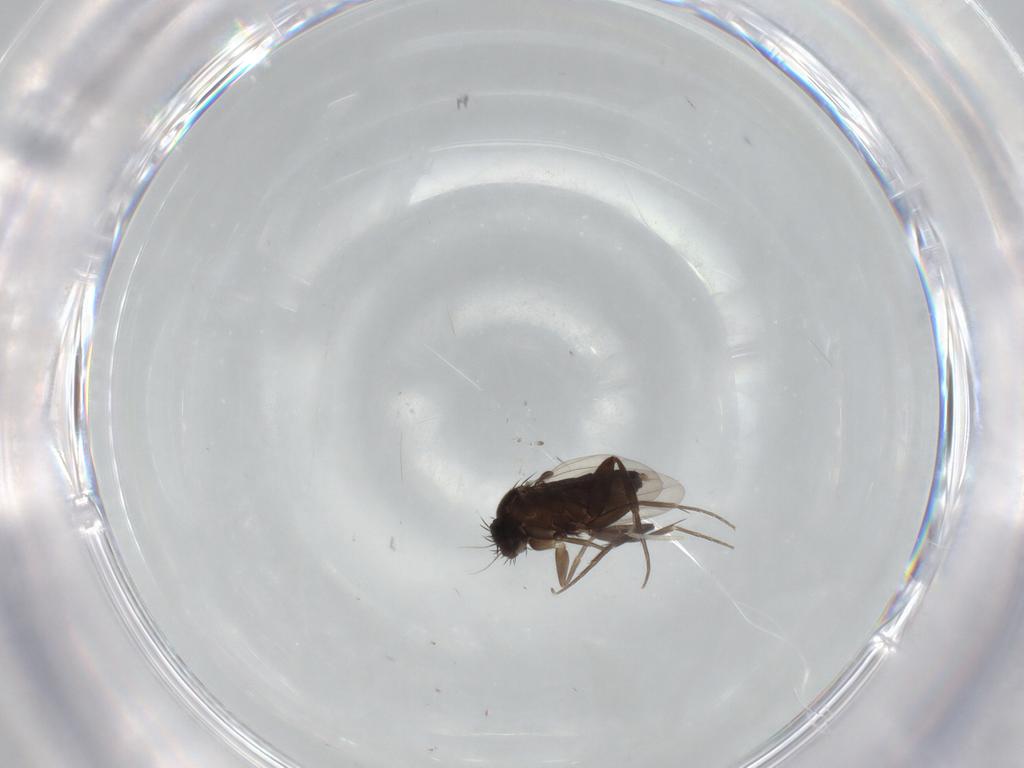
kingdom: Animalia
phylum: Arthropoda
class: Insecta
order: Diptera
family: Phoridae
